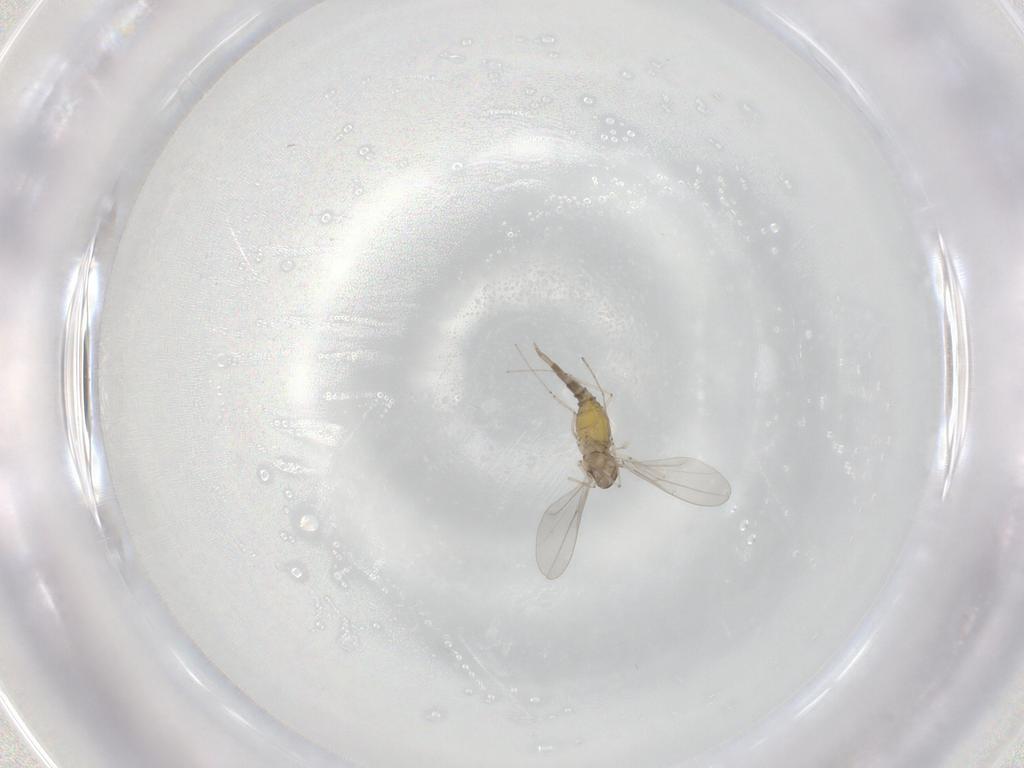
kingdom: Animalia
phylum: Arthropoda
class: Insecta
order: Diptera
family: Cecidomyiidae
